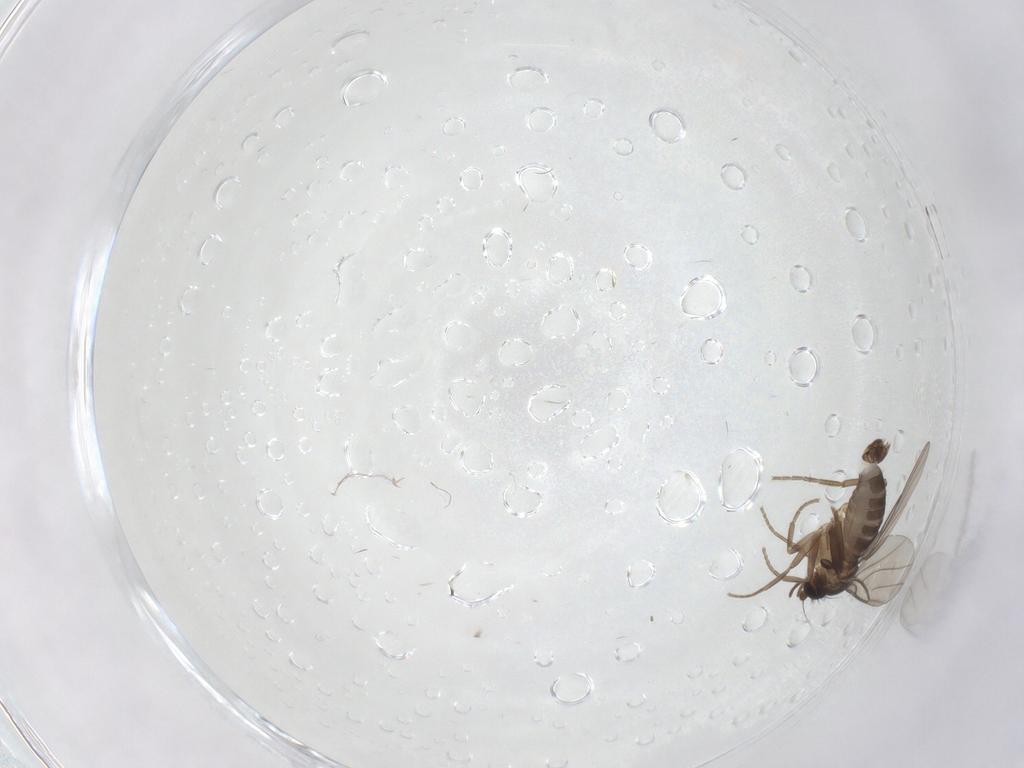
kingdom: Animalia
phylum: Arthropoda
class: Insecta
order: Diptera
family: Phoridae
